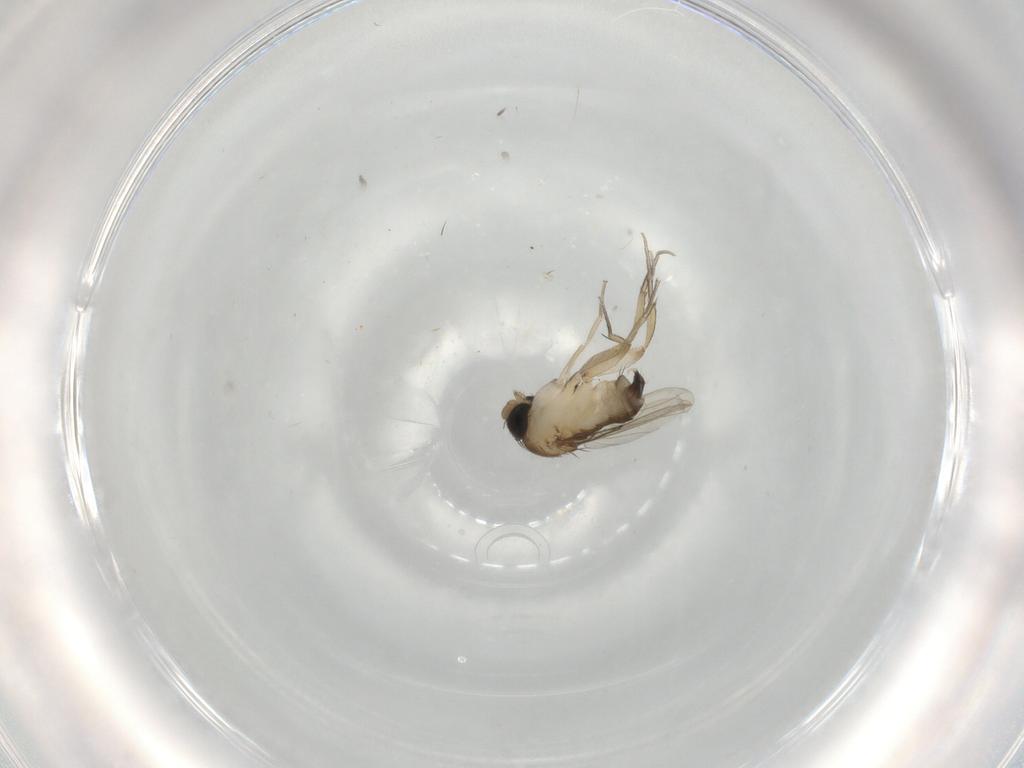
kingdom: Animalia
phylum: Arthropoda
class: Insecta
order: Diptera
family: Phoridae
